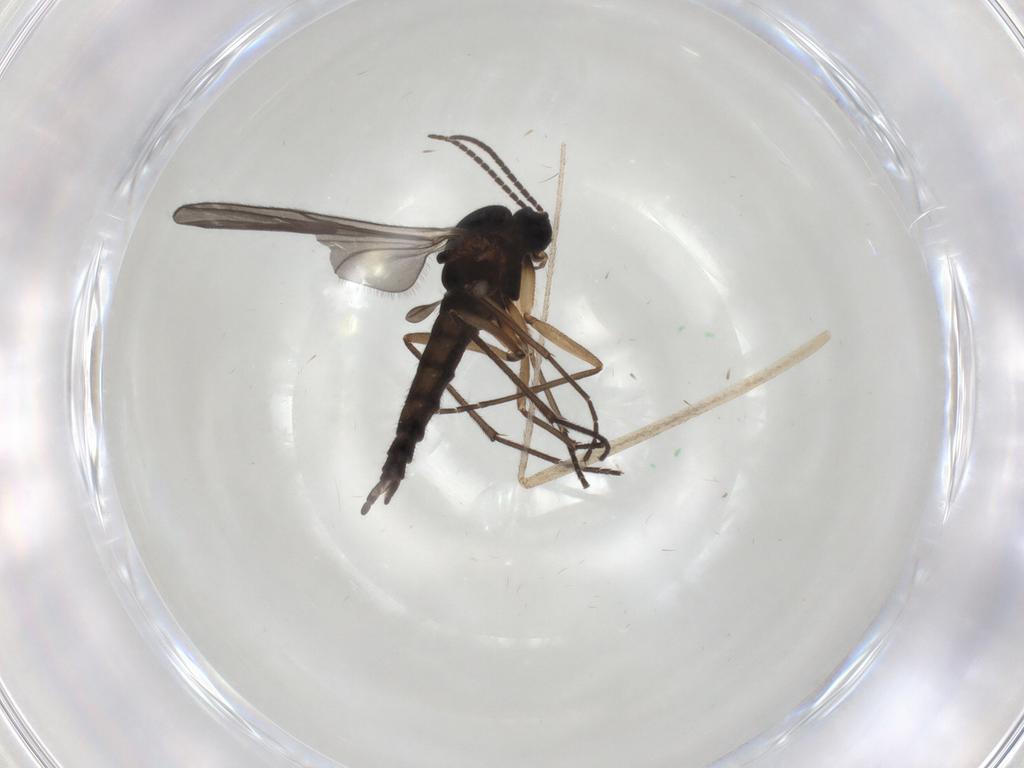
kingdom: Animalia
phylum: Arthropoda
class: Insecta
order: Diptera
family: Sciaridae
